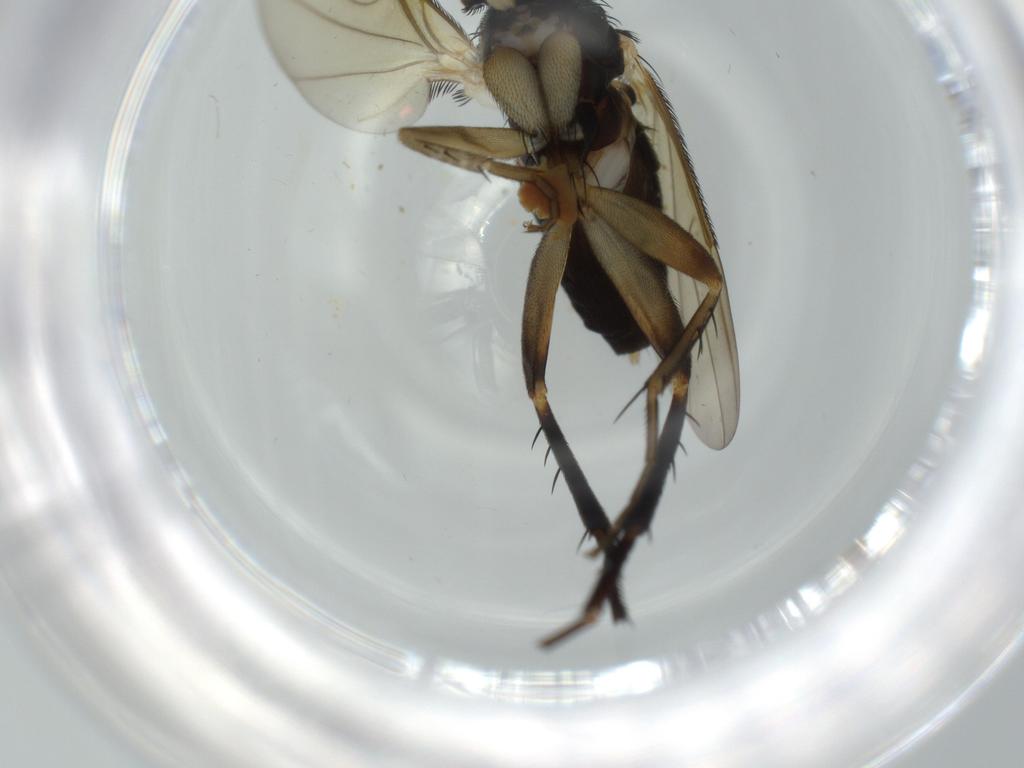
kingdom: Animalia
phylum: Arthropoda
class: Insecta
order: Diptera
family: Phoridae
